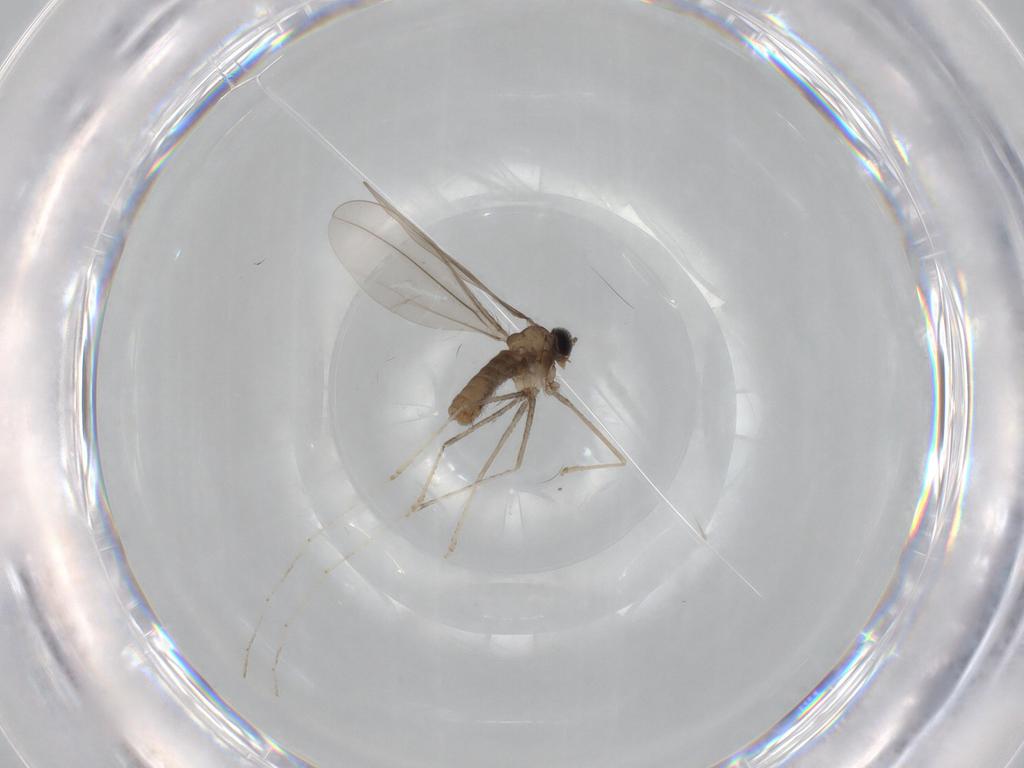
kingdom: Animalia
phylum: Arthropoda
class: Insecta
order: Diptera
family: Cecidomyiidae
